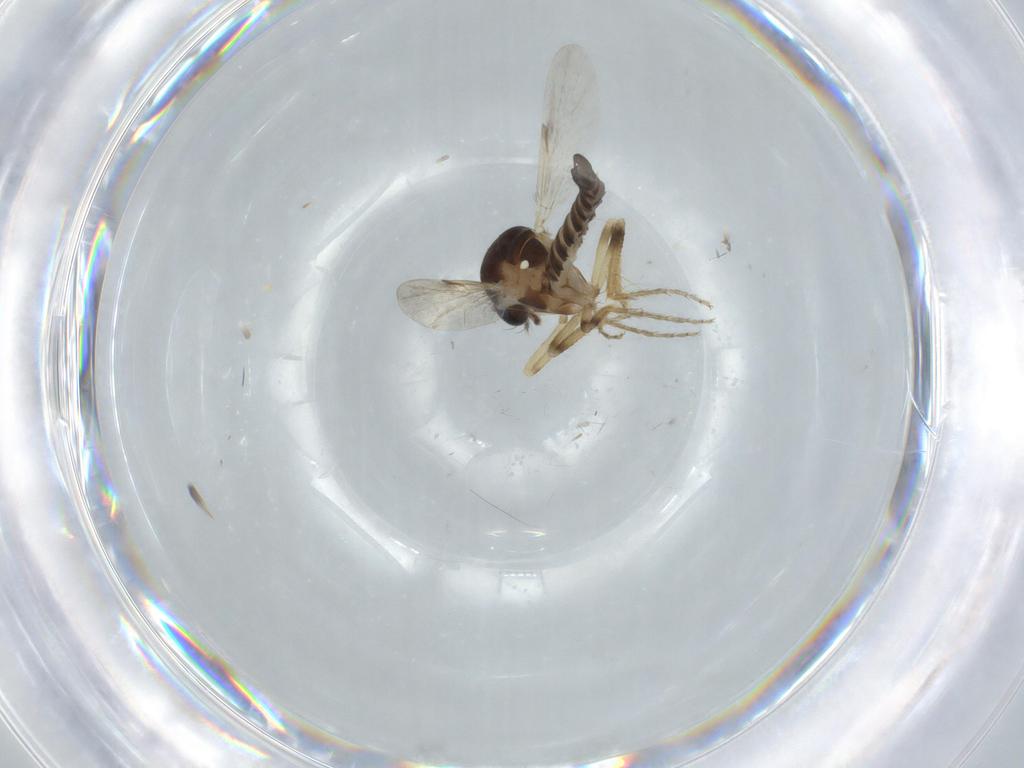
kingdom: Animalia
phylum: Arthropoda
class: Insecta
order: Diptera
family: Ceratopogonidae
